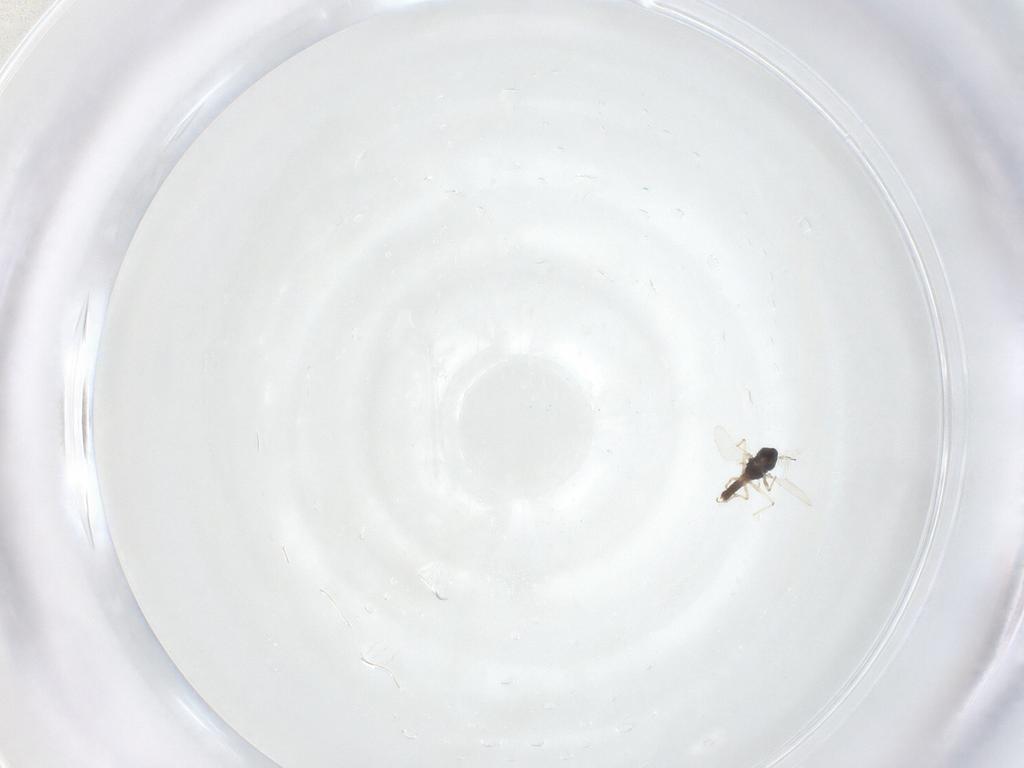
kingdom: Animalia
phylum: Arthropoda
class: Insecta
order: Diptera
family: Chironomidae
